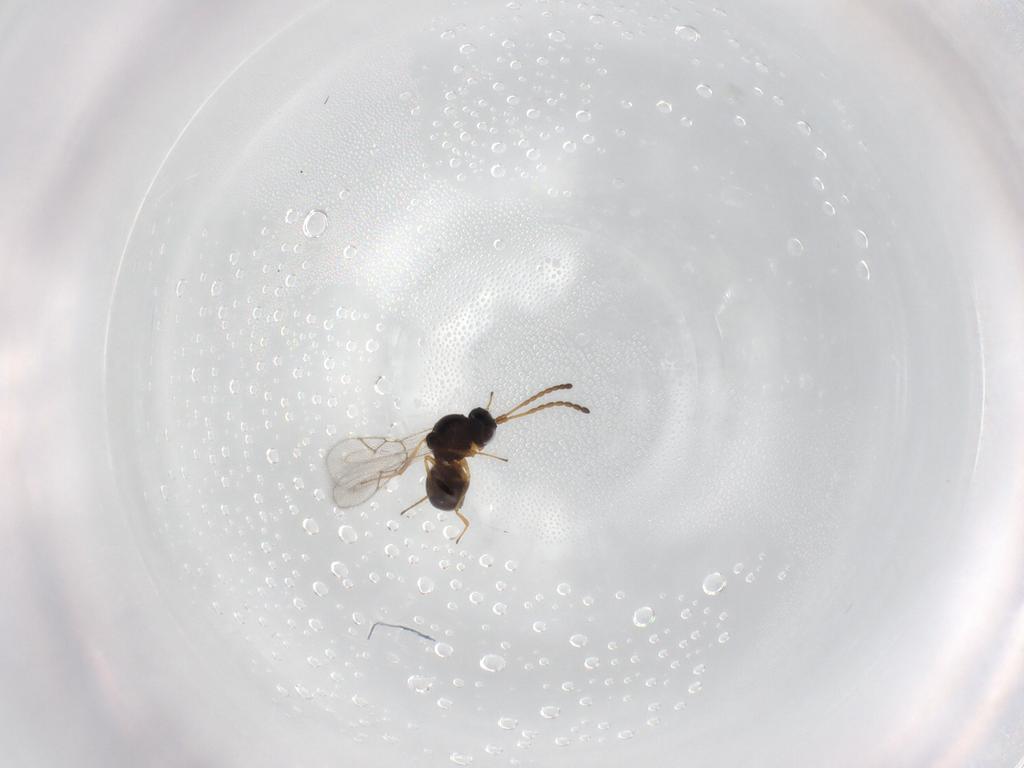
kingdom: Animalia
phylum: Arthropoda
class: Insecta
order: Hymenoptera
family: Figitidae
